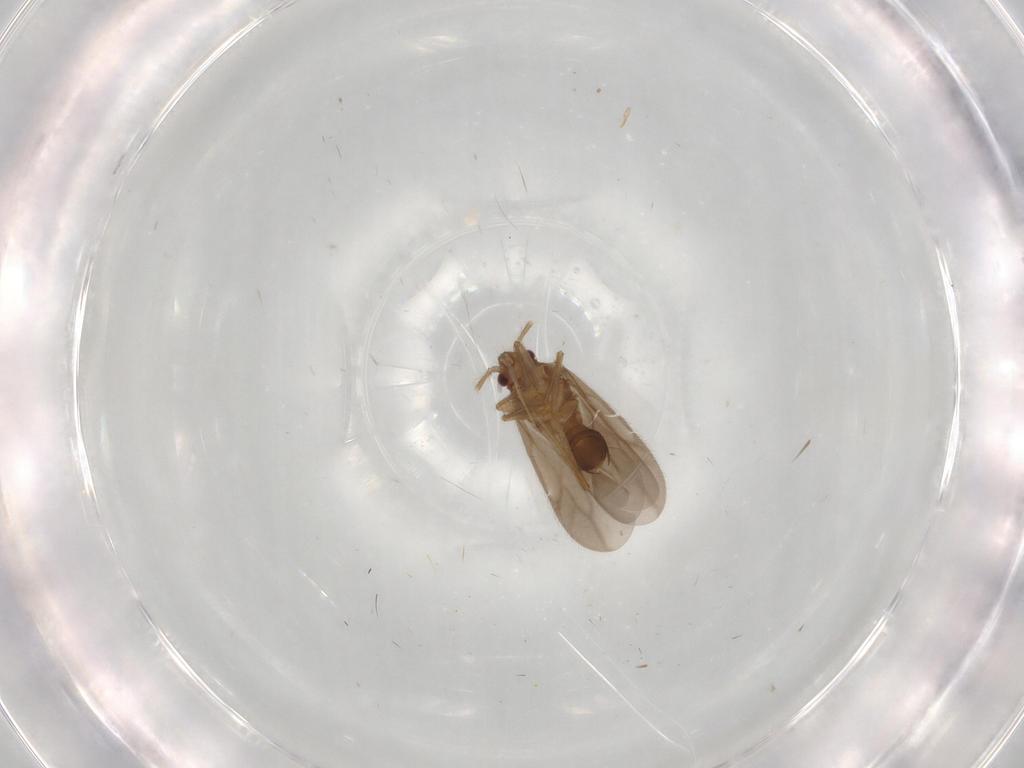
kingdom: Animalia
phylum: Arthropoda
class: Insecta
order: Hemiptera
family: Ceratocombidae
